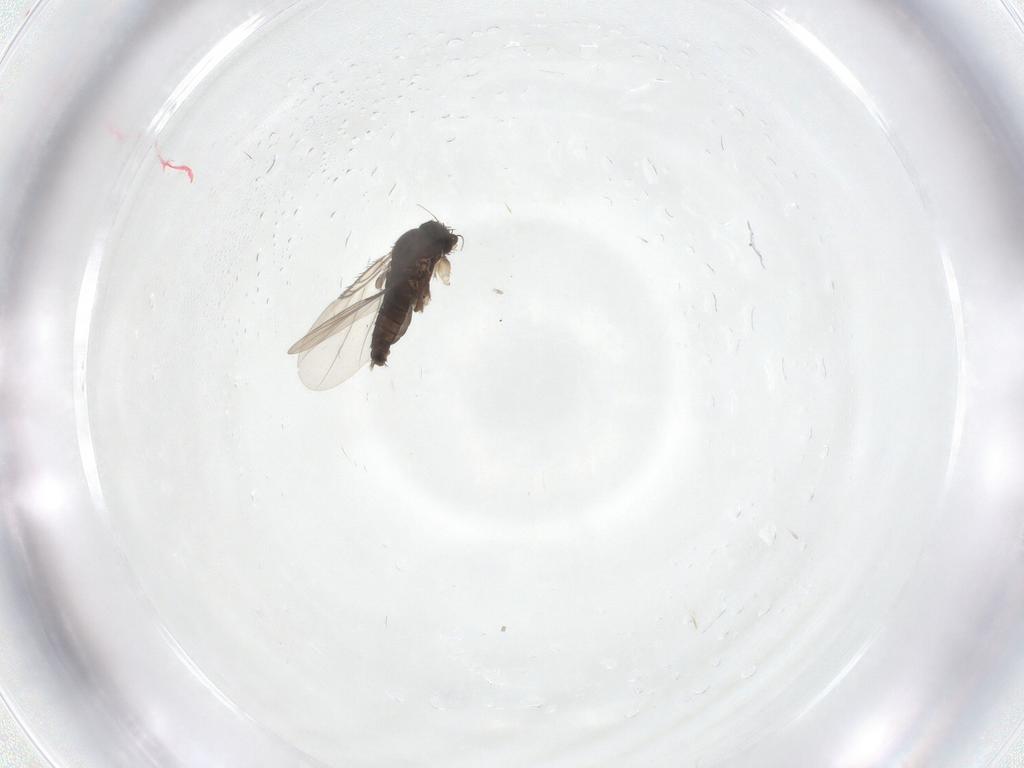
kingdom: Animalia
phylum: Arthropoda
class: Insecta
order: Diptera
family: Phoridae
